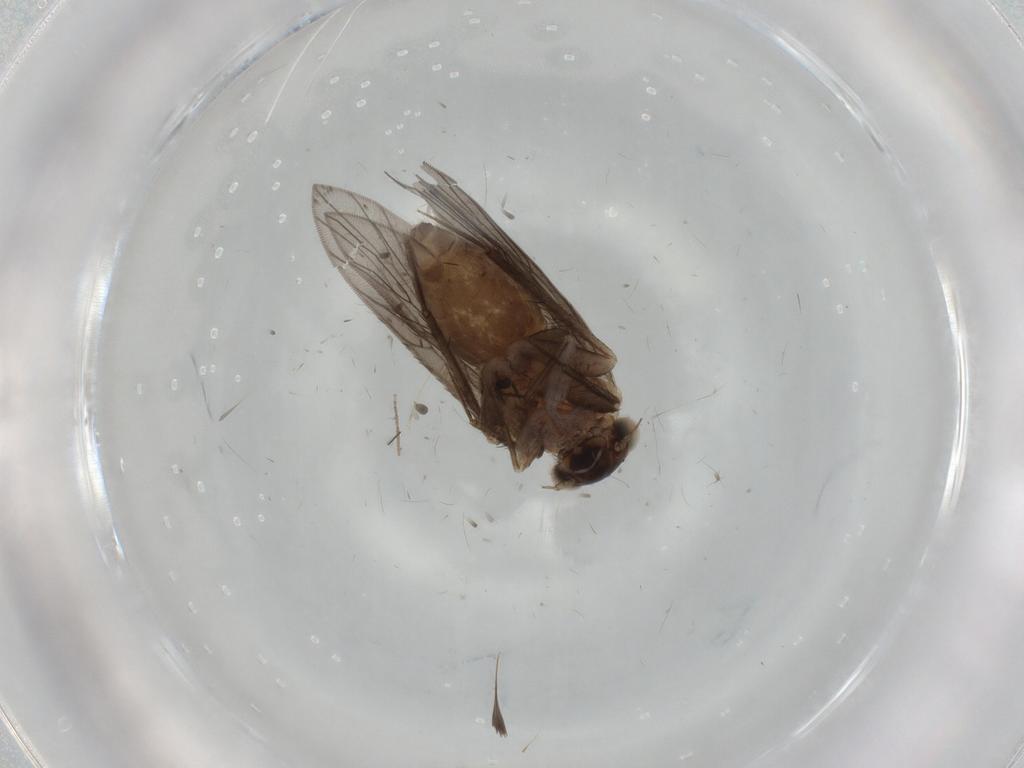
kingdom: Animalia
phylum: Arthropoda
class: Insecta
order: Psocodea
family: Lepidopsocidae
